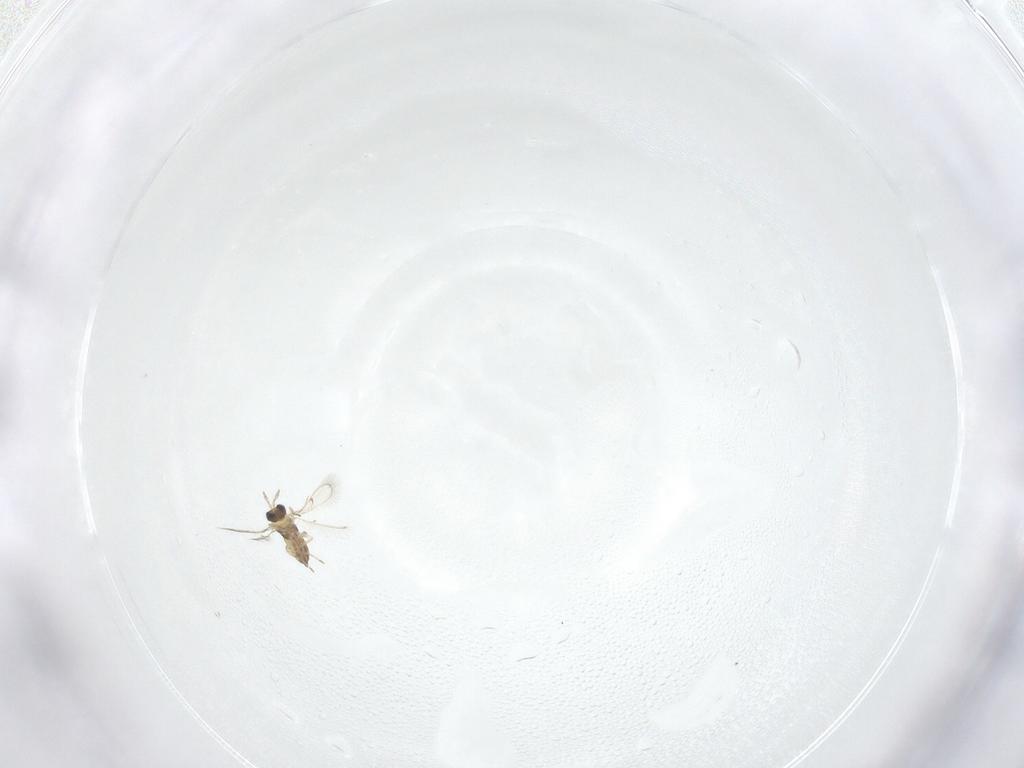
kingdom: Animalia
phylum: Arthropoda
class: Insecta
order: Hymenoptera
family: Trichogrammatidae
